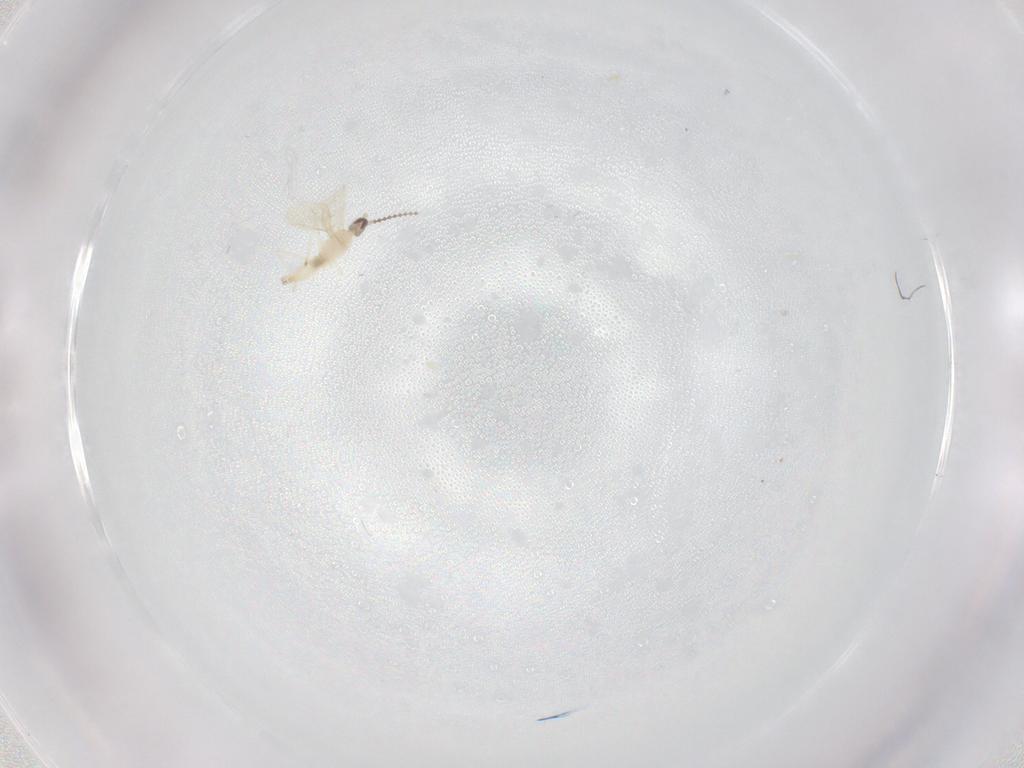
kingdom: Animalia
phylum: Arthropoda
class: Insecta
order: Diptera
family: Cecidomyiidae
